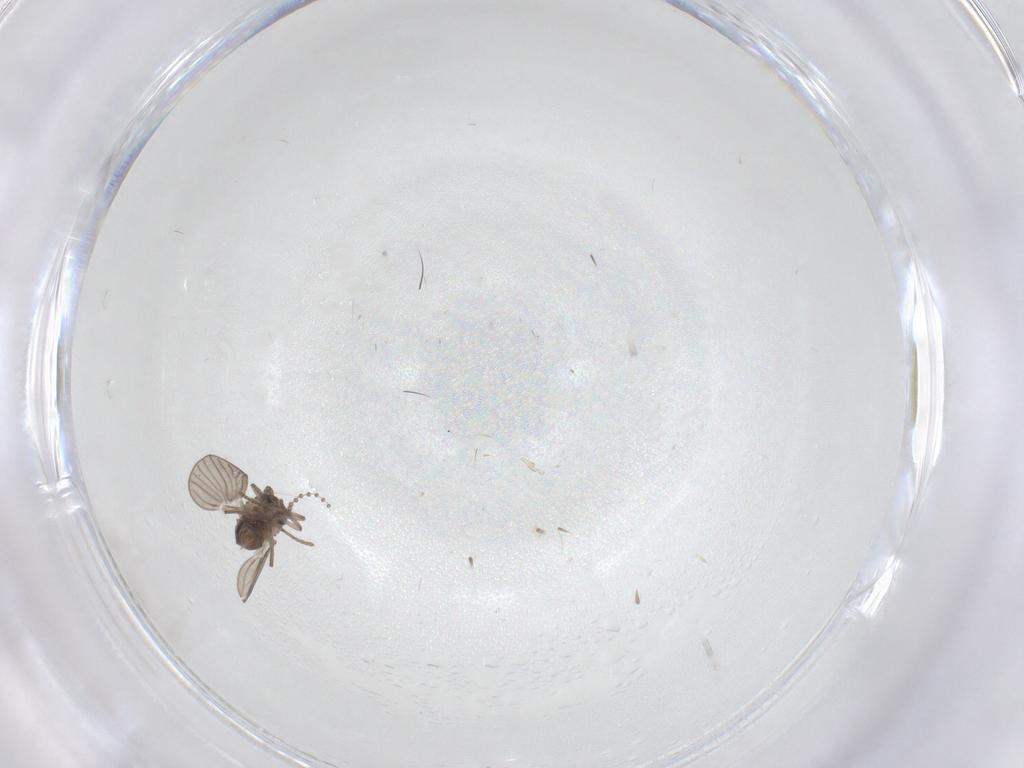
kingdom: Animalia
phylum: Arthropoda
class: Insecta
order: Diptera
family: Psychodidae
